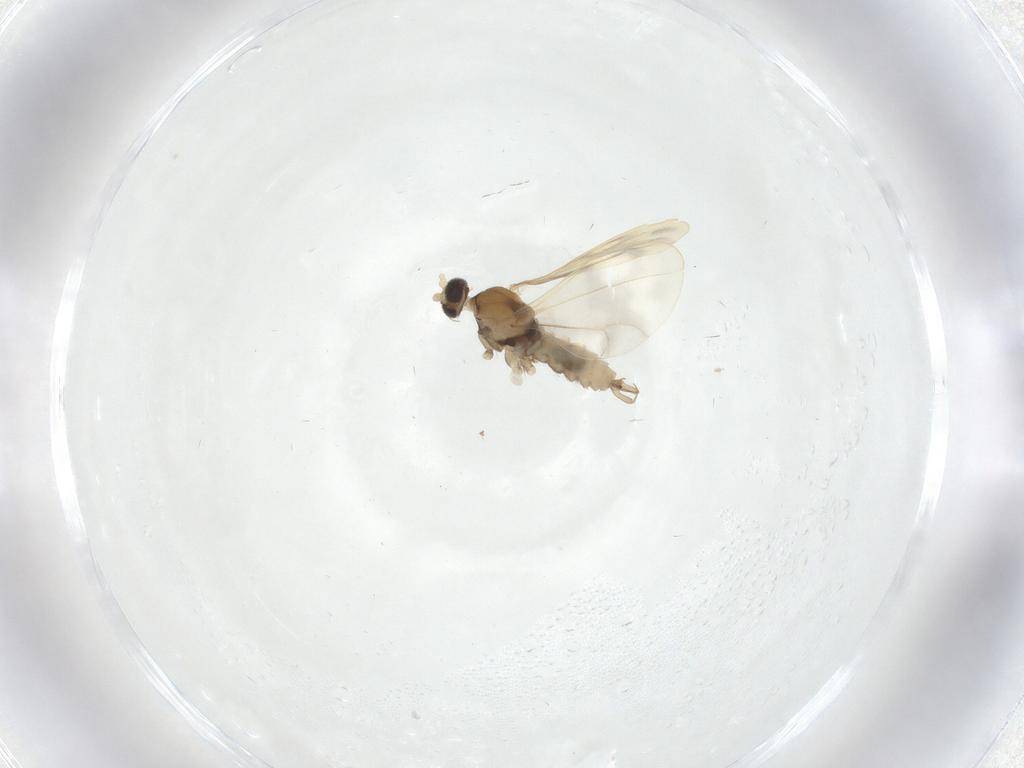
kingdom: Animalia
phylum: Arthropoda
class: Insecta
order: Diptera
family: Cecidomyiidae
